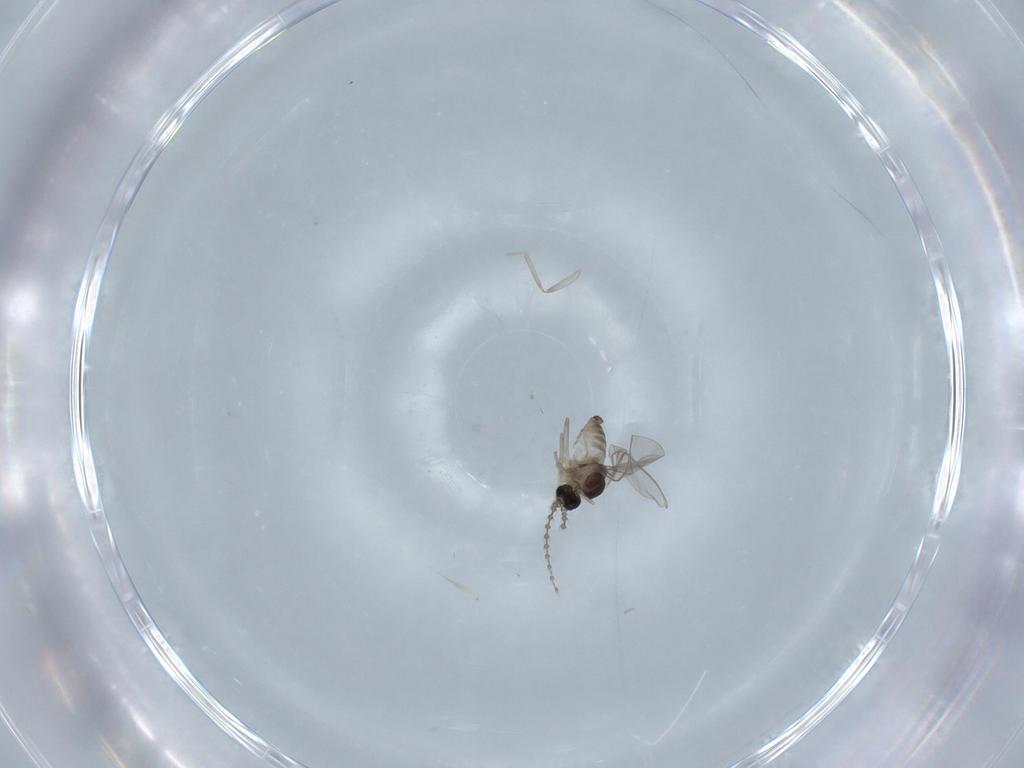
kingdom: Animalia
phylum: Arthropoda
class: Insecta
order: Diptera
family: Cecidomyiidae
